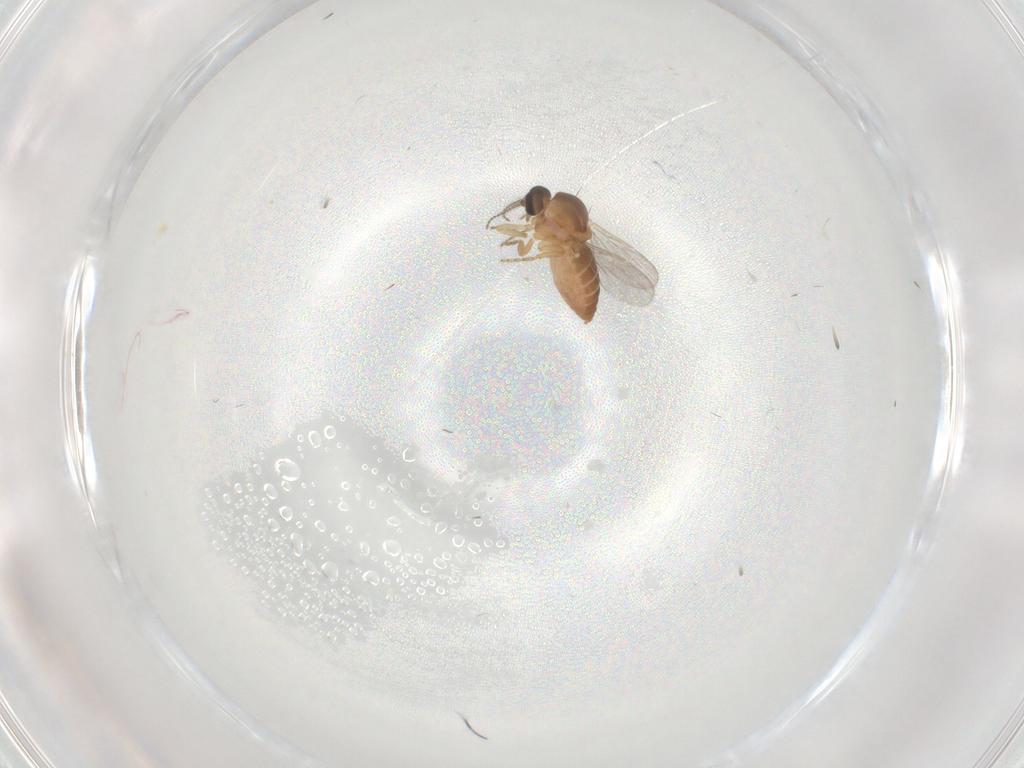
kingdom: Animalia
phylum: Arthropoda
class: Insecta
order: Diptera
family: Ceratopogonidae
